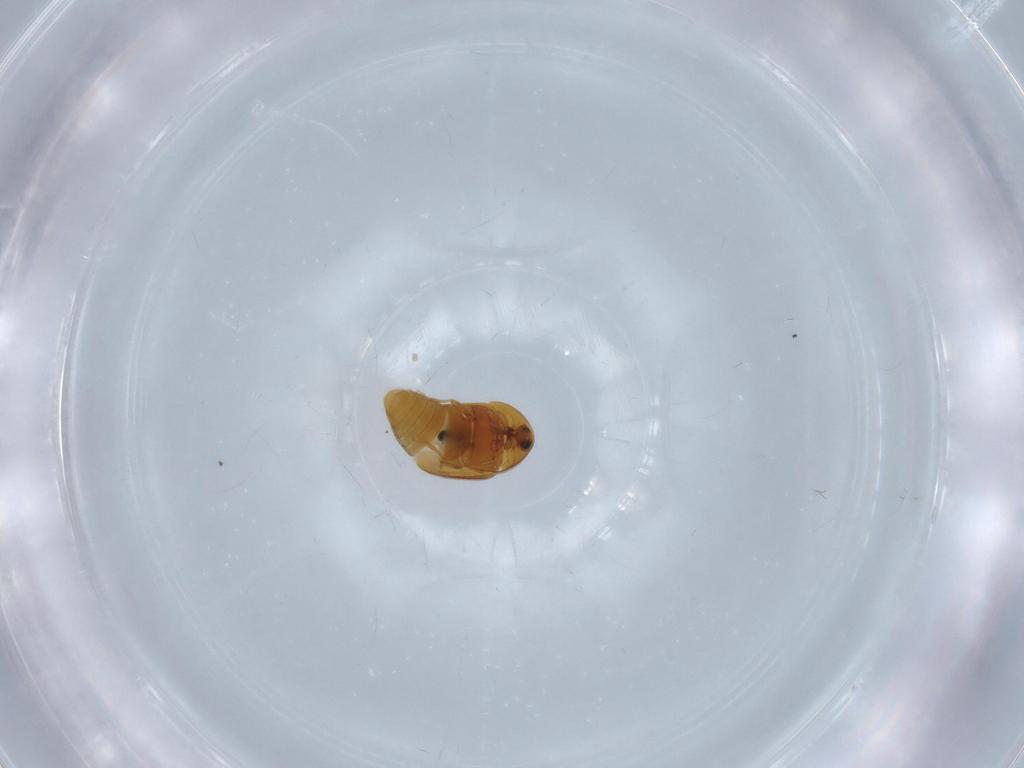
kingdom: Animalia
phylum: Arthropoda
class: Insecta
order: Coleoptera
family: Corylophidae
